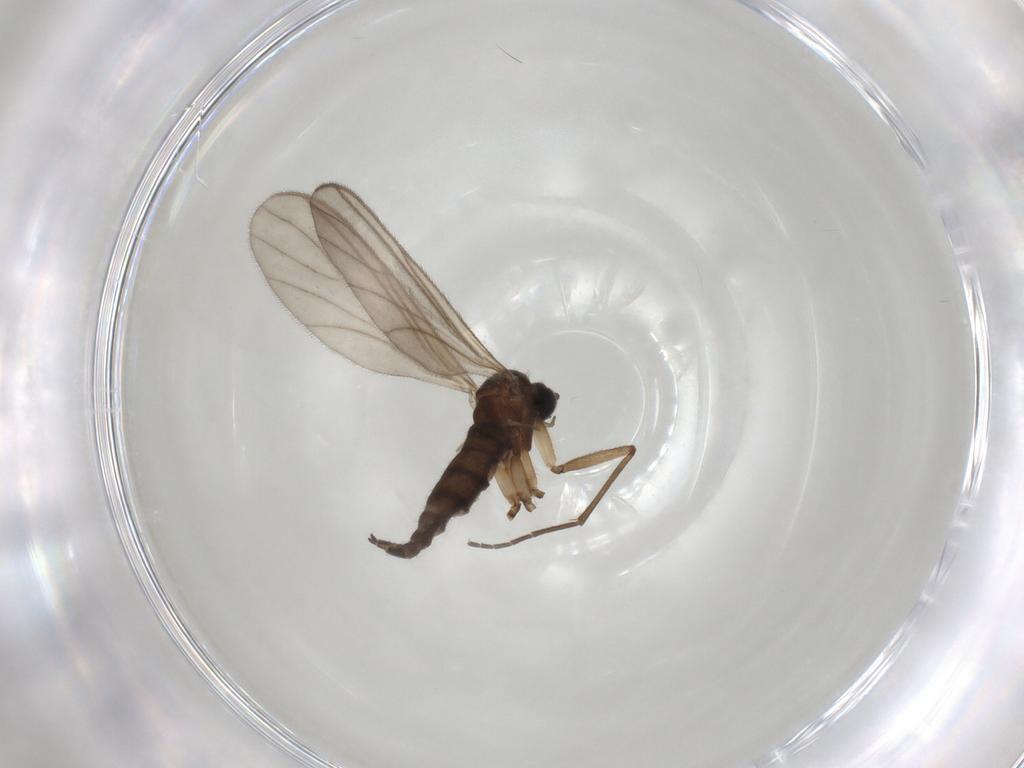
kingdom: Animalia
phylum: Arthropoda
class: Insecta
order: Diptera
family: Sciaridae
